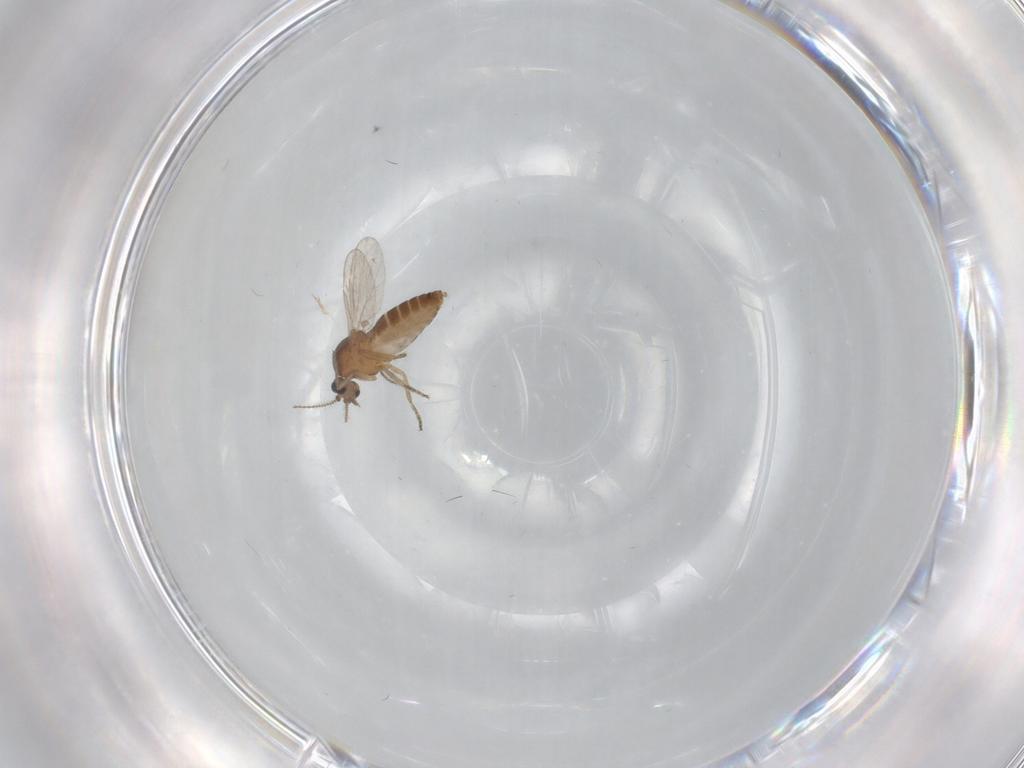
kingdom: Animalia
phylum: Arthropoda
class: Insecta
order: Diptera
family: Ceratopogonidae
